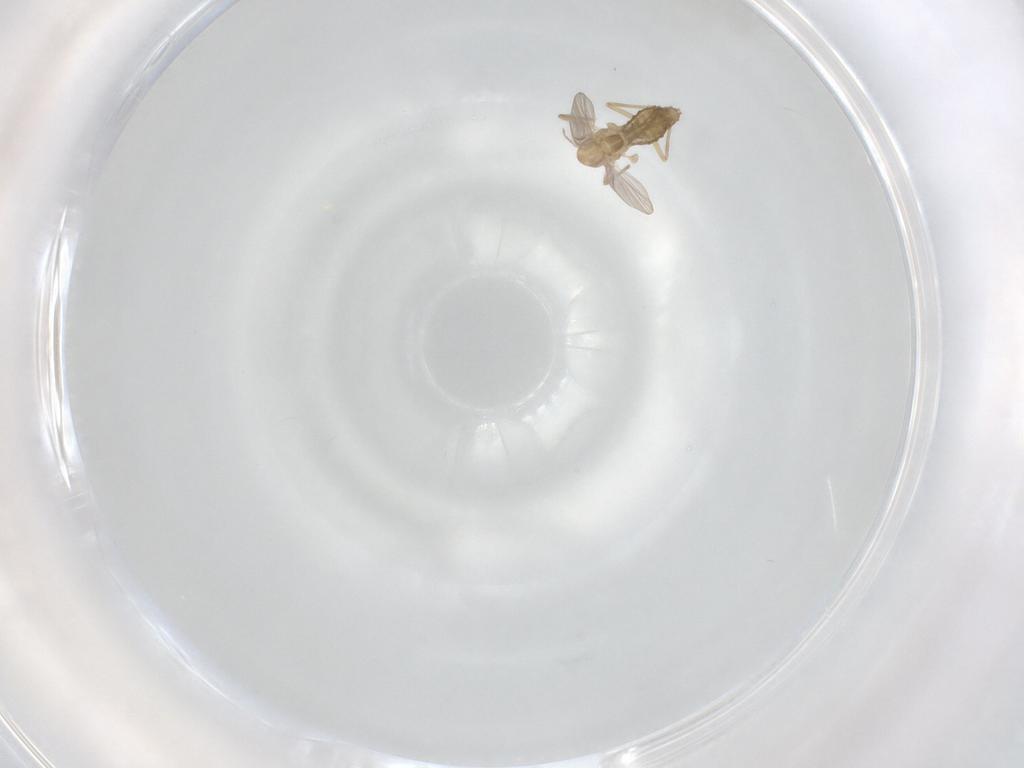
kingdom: Animalia
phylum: Arthropoda
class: Insecta
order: Diptera
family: Chironomidae
